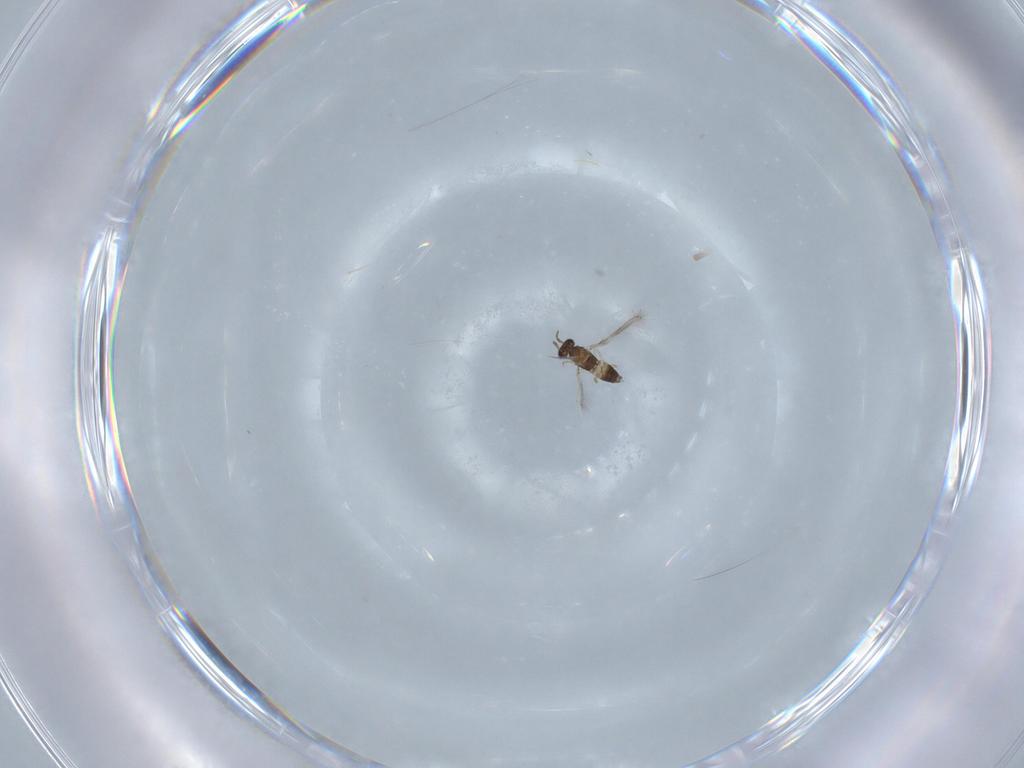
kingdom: Animalia
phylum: Arthropoda
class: Insecta
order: Hymenoptera
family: Mymaridae
